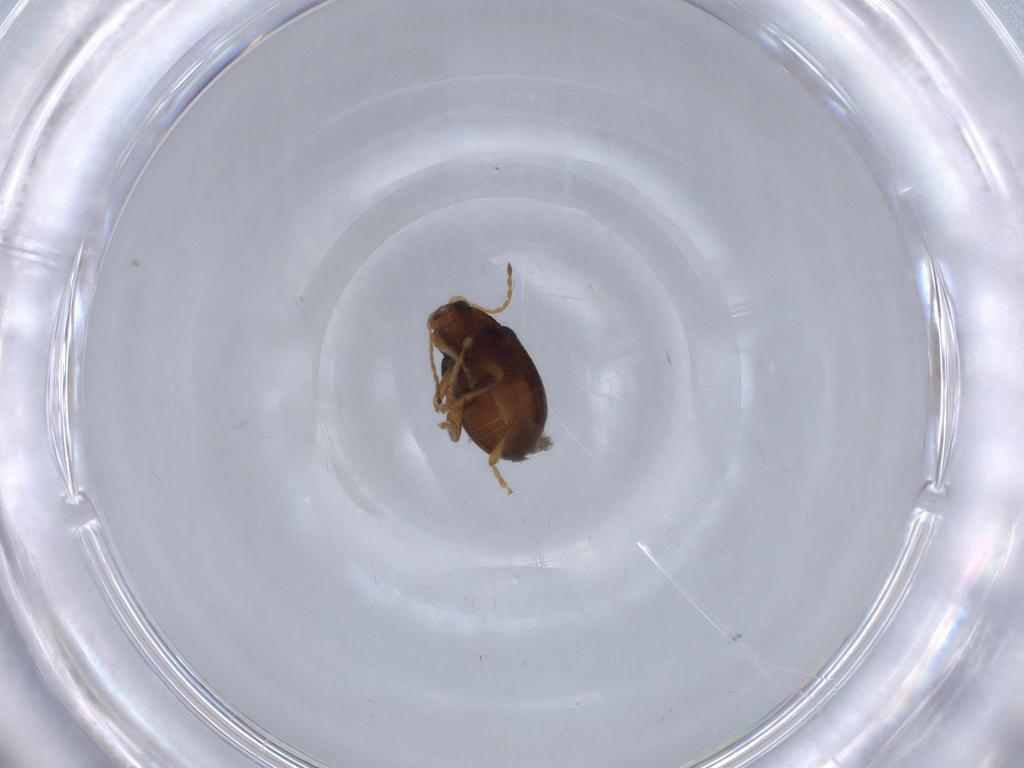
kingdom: Animalia
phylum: Arthropoda
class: Insecta
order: Coleoptera
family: Chrysomelidae
